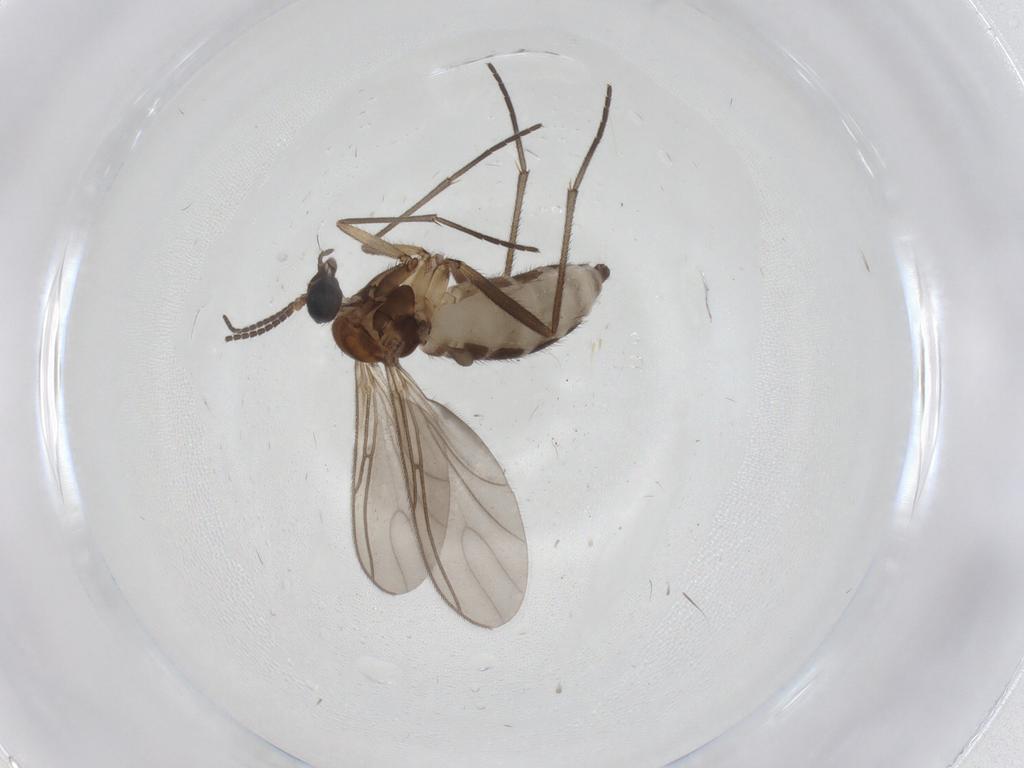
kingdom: Animalia
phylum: Arthropoda
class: Insecta
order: Diptera
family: Sciaridae
